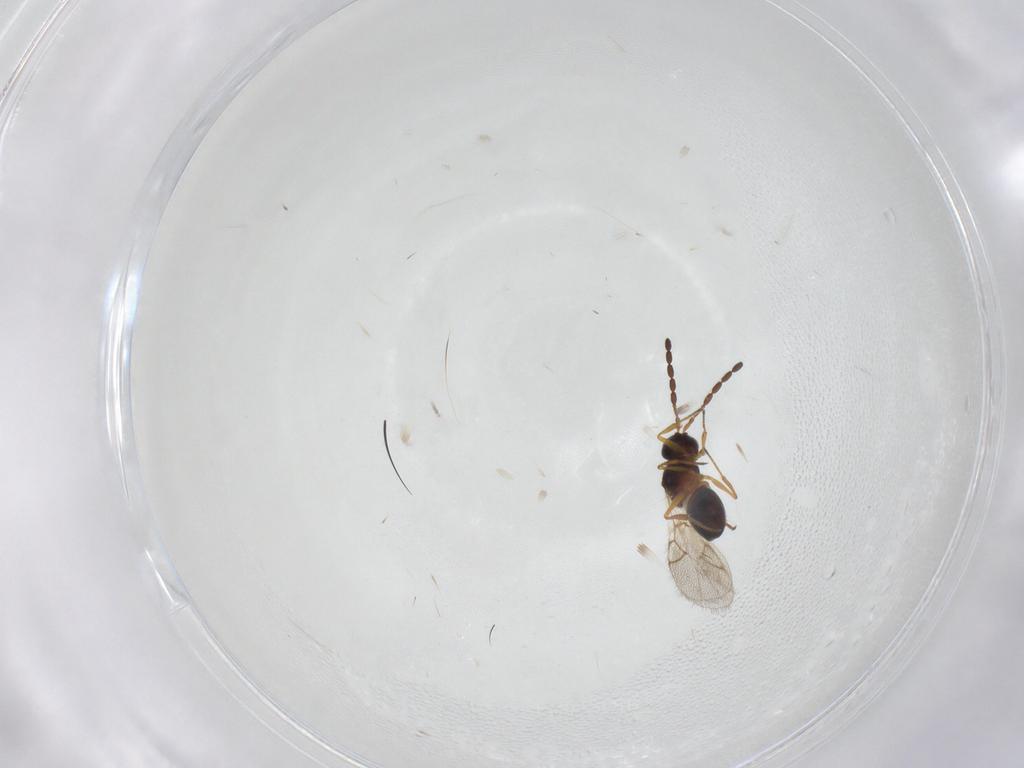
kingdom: Animalia
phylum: Arthropoda
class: Insecta
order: Hymenoptera
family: Figitidae
